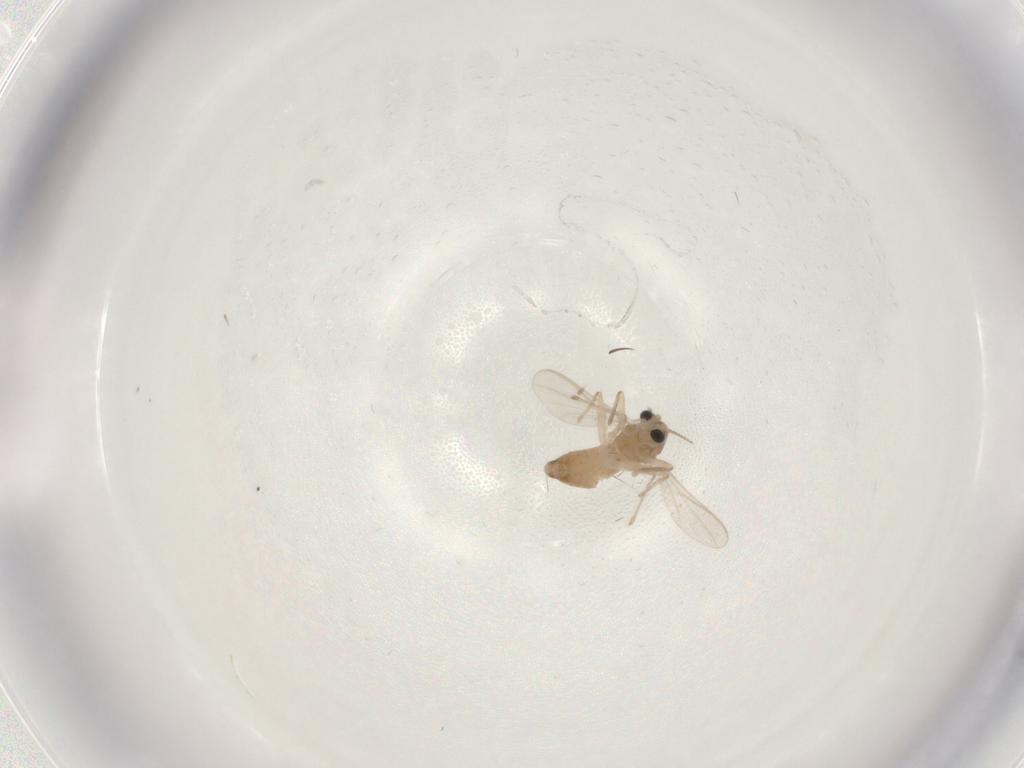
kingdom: Animalia
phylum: Arthropoda
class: Insecta
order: Diptera
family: Chironomidae
